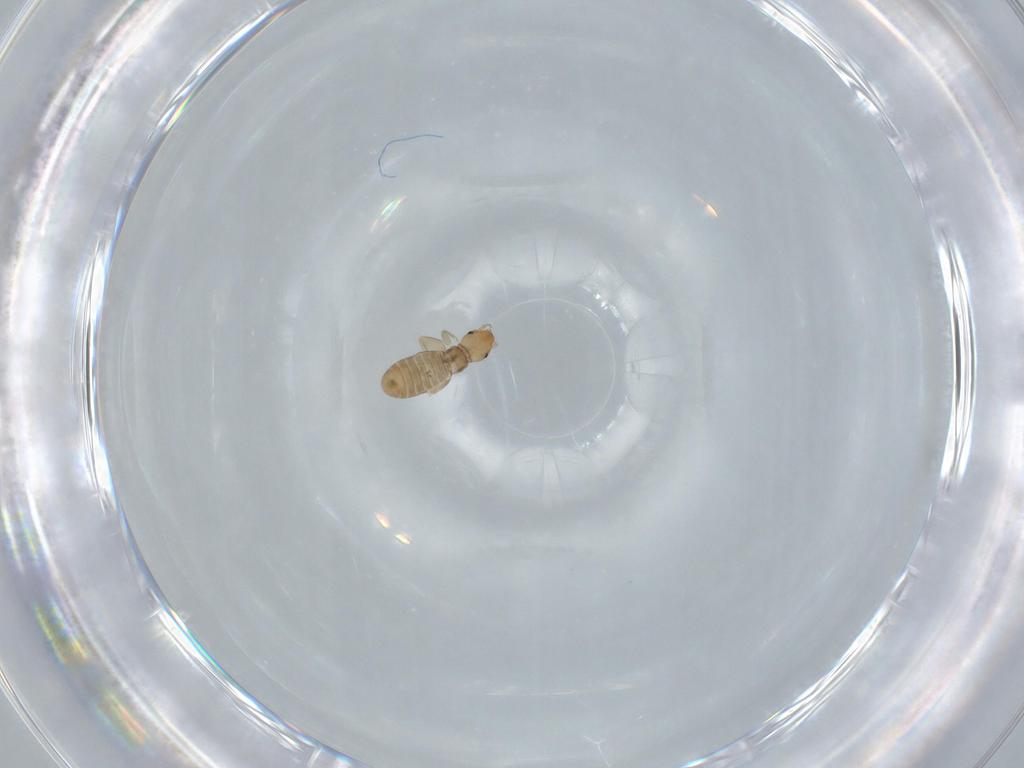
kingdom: Animalia
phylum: Arthropoda
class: Insecta
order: Psocodea
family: Liposcelididae
